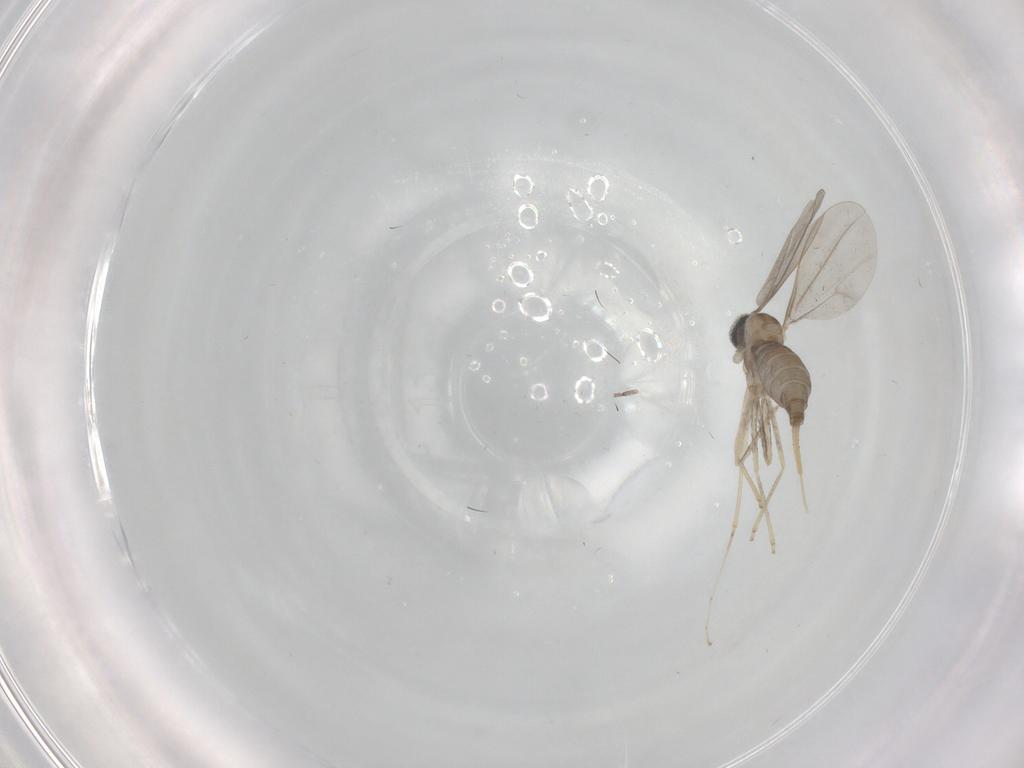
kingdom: Animalia
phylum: Arthropoda
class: Insecta
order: Diptera
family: Cecidomyiidae
